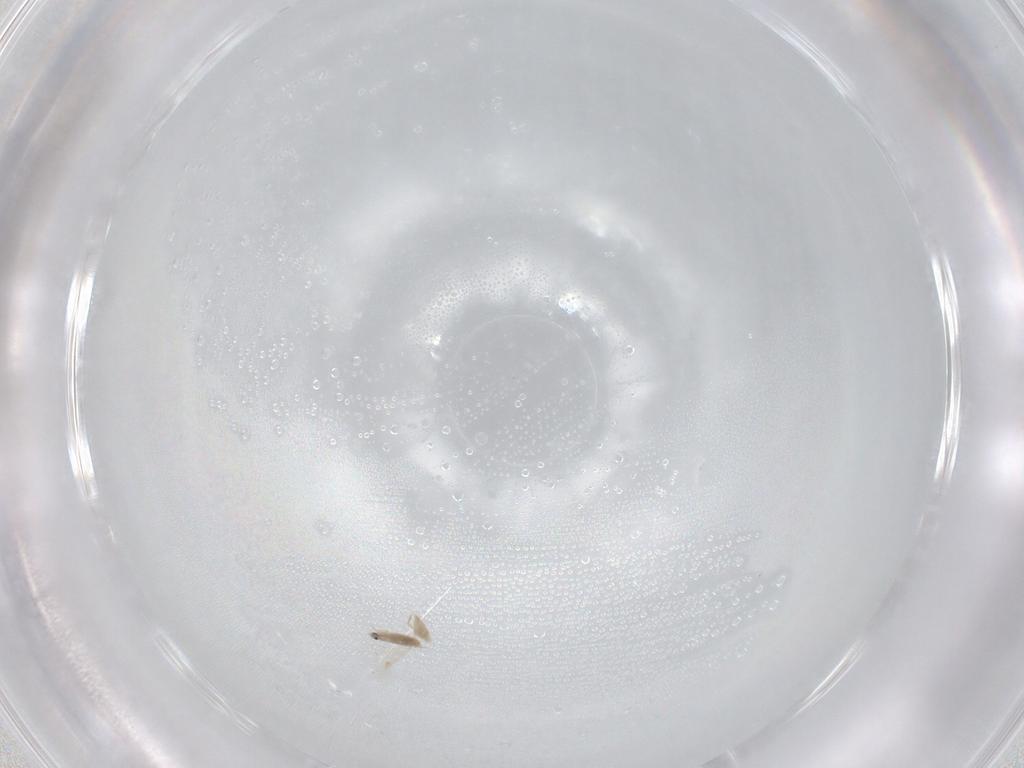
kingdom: Animalia
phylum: Arthropoda
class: Insecta
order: Hemiptera
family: Coccoidea_incertae_sedis
